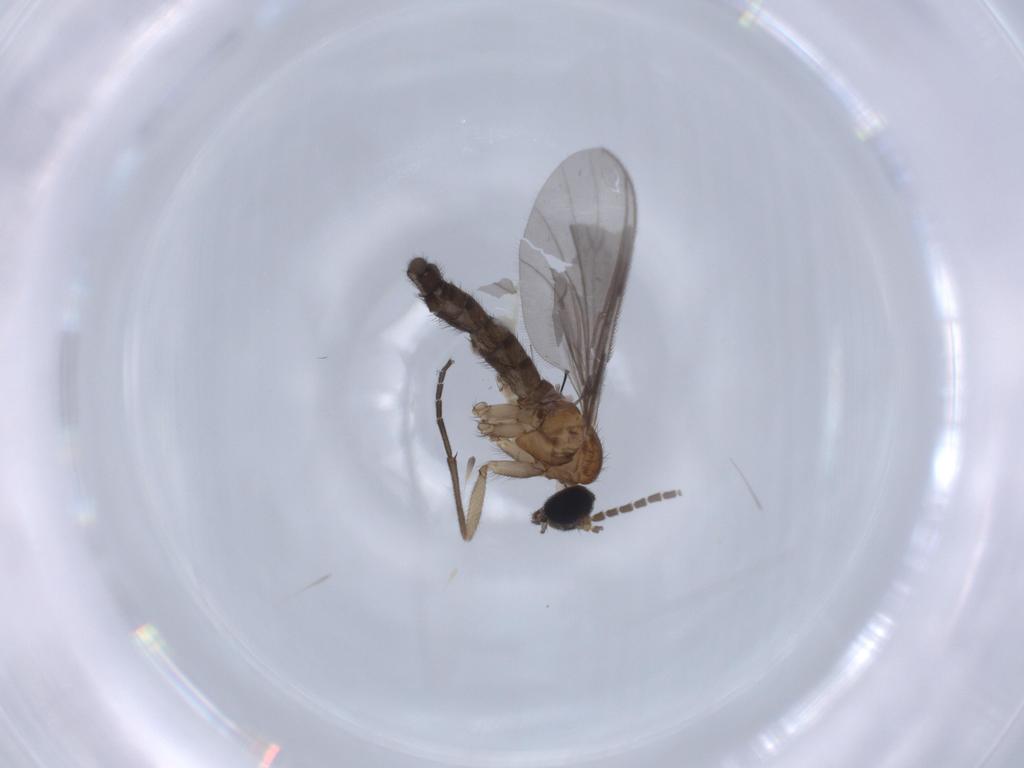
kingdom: Animalia
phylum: Arthropoda
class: Insecta
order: Diptera
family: Sciaridae
